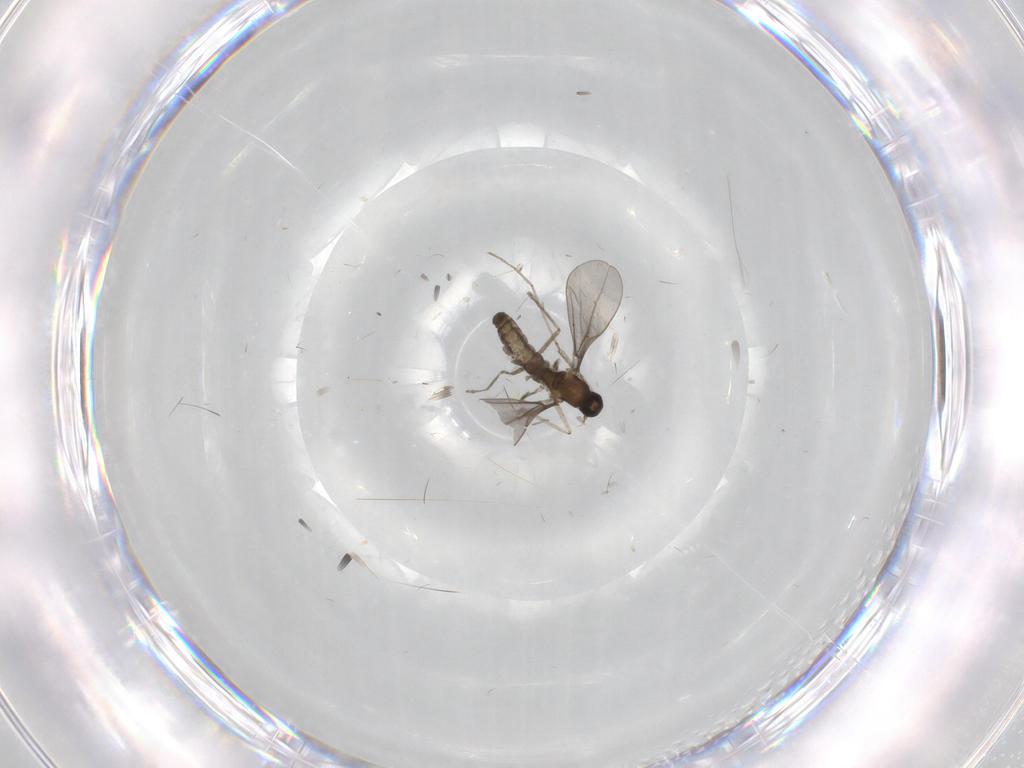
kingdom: Animalia
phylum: Arthropoda
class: Insecta
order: Diptera
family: Phoridae
